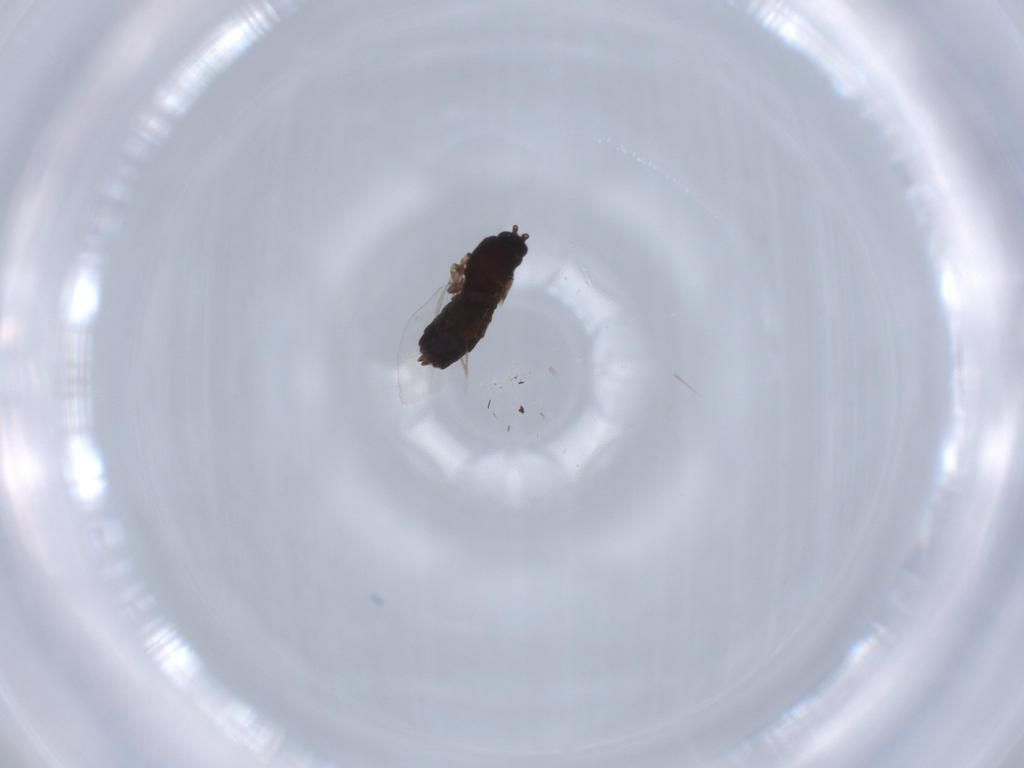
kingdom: Animalia
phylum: Arthropoda
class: Insecta
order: Diptera
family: Hybotidae
